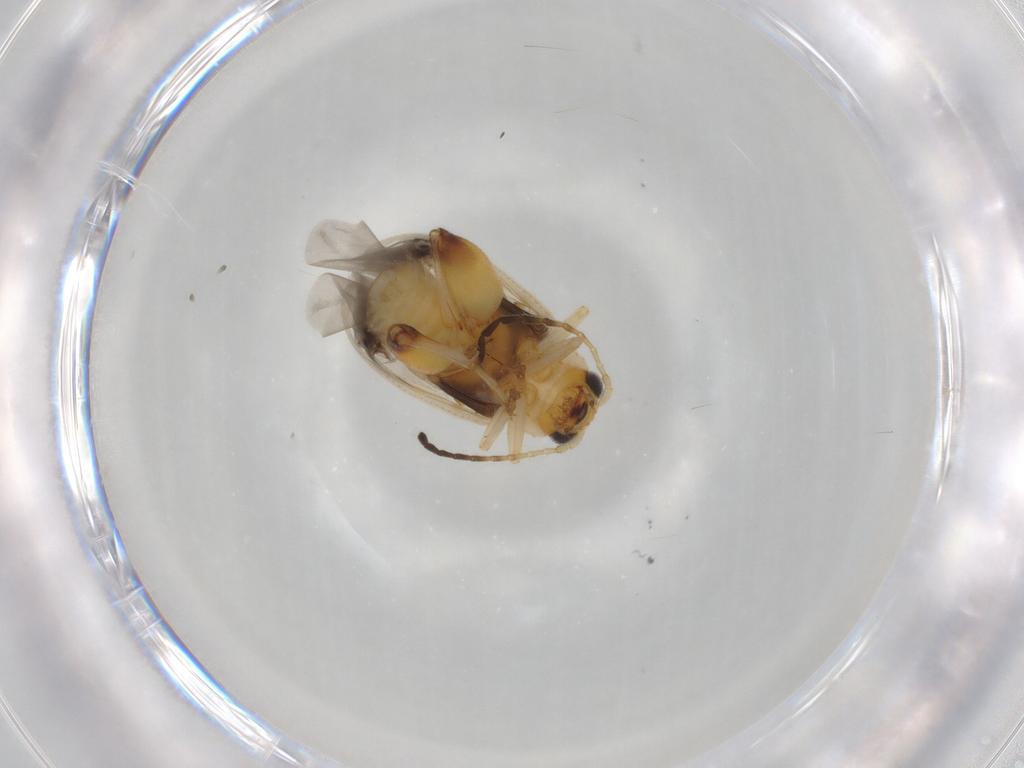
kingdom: Animalia
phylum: Arthropoda
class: Insecta
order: Coleoptera
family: Chrysomelidae
